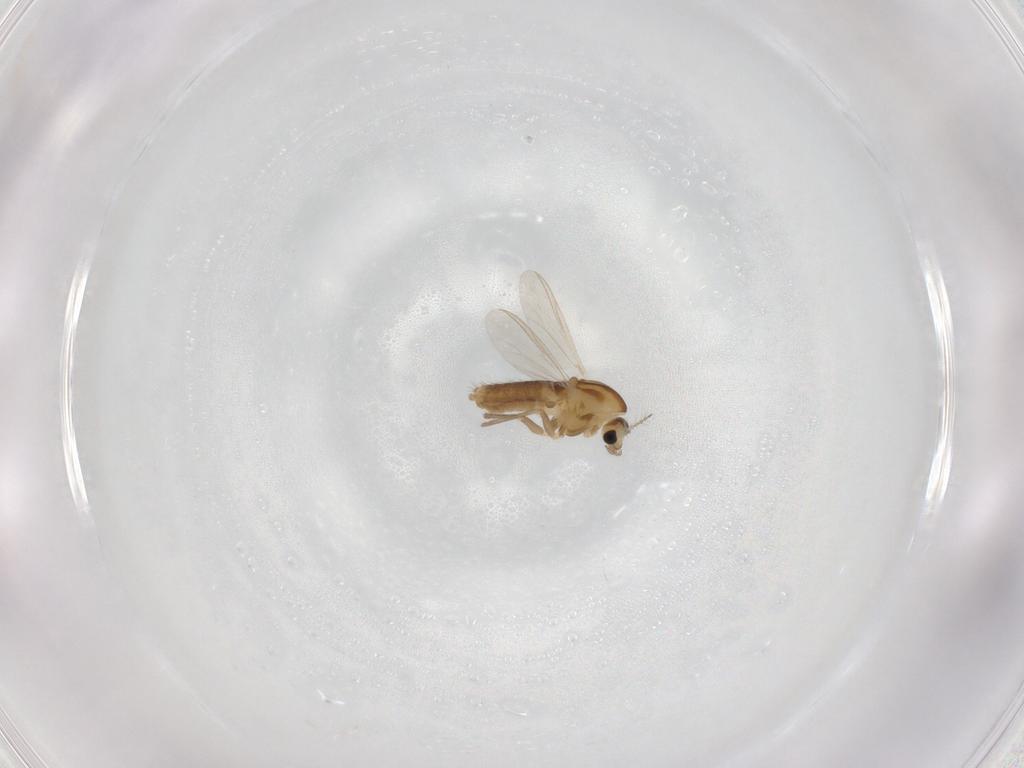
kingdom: Animalia
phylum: Arthropoda
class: Insecta
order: Diptera
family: Chironomidae
